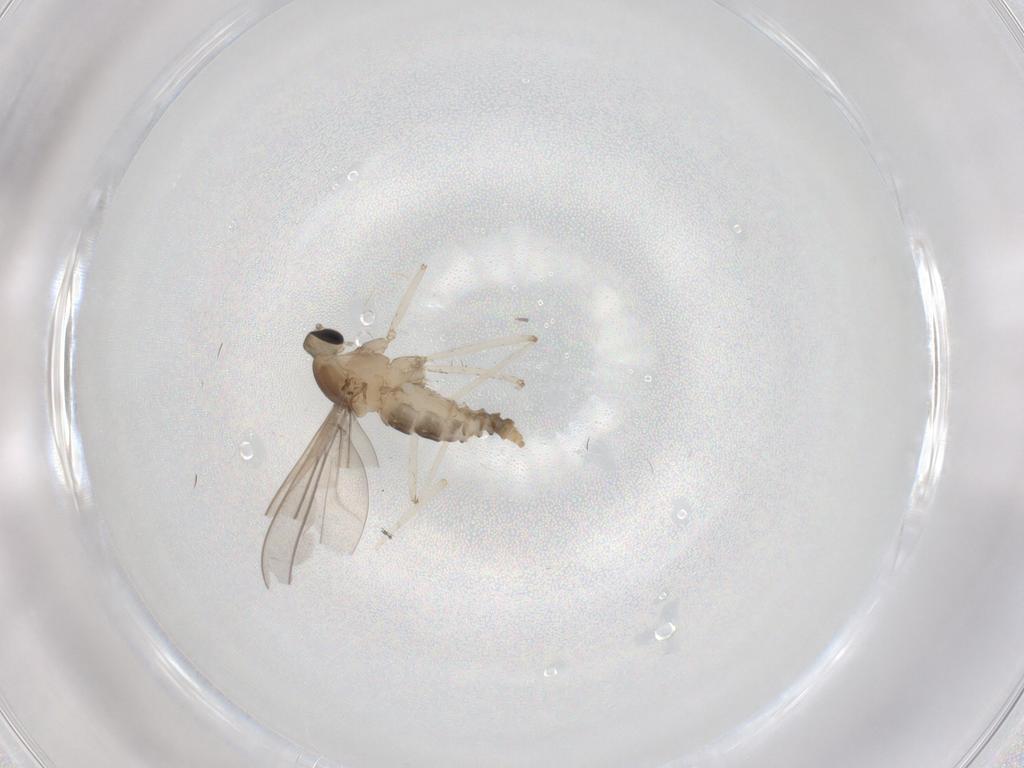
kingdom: Animalia
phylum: Arthropoda
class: Insecta
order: Diptera
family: Cecidomyiidae
